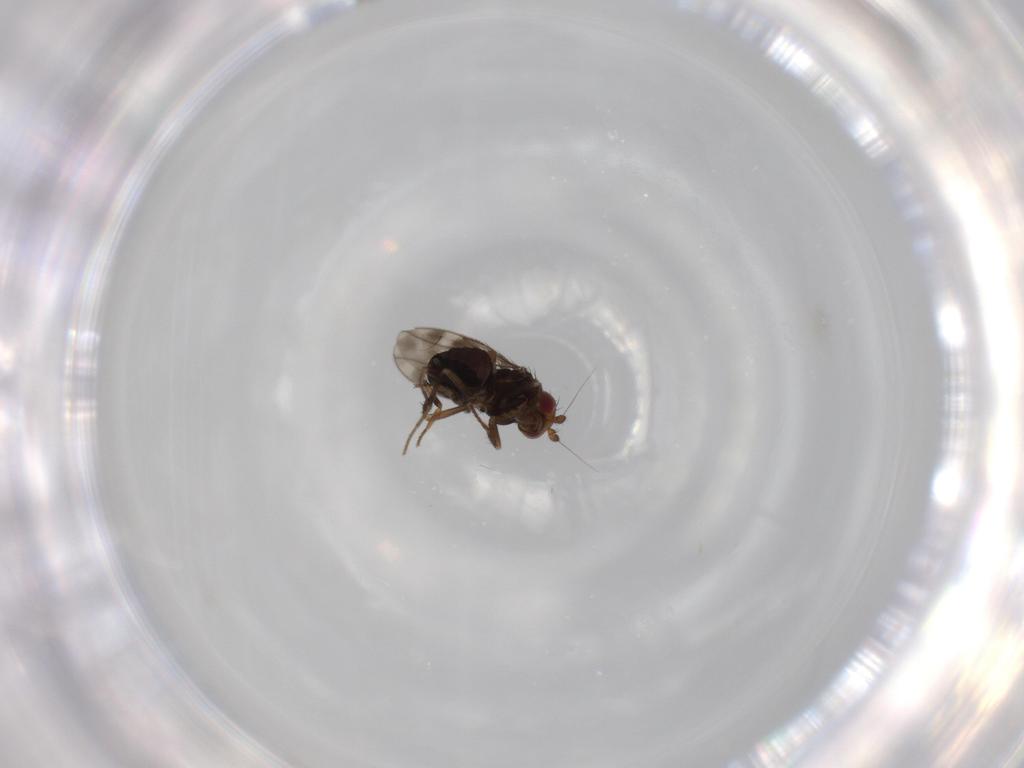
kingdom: Animalia
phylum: Arthropoda
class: Insecta
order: Diptera
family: Sphaeroceridae
